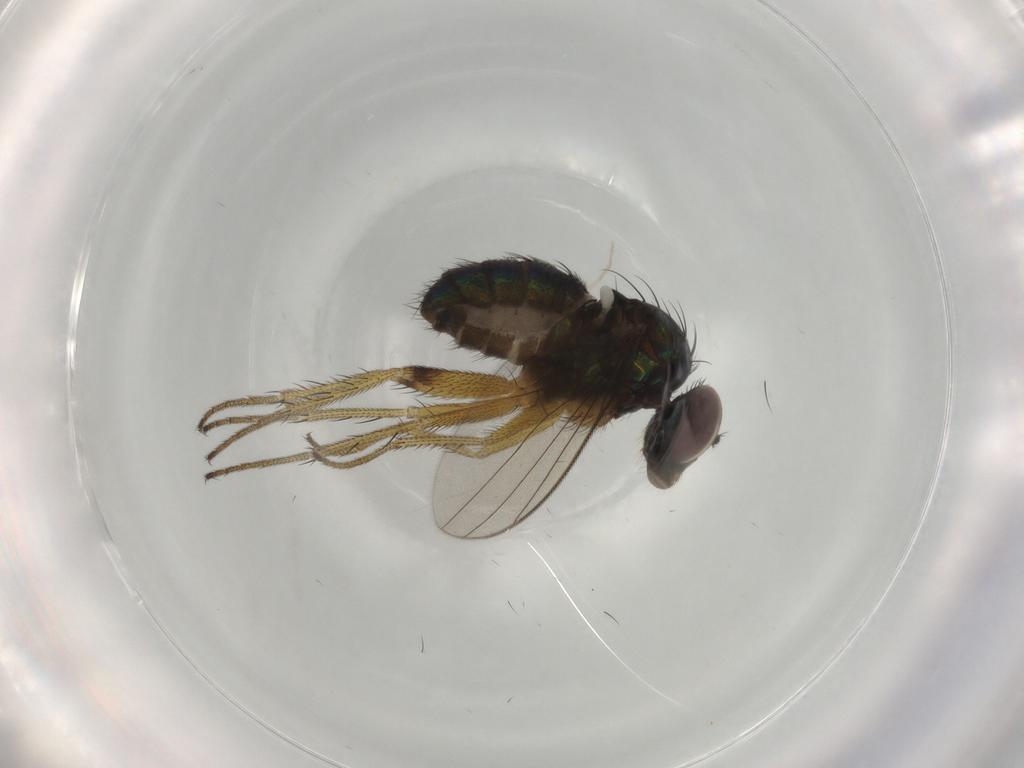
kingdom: Animalia
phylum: Arthropoda
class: Insecta
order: Diptera
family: Dolichopodidae
